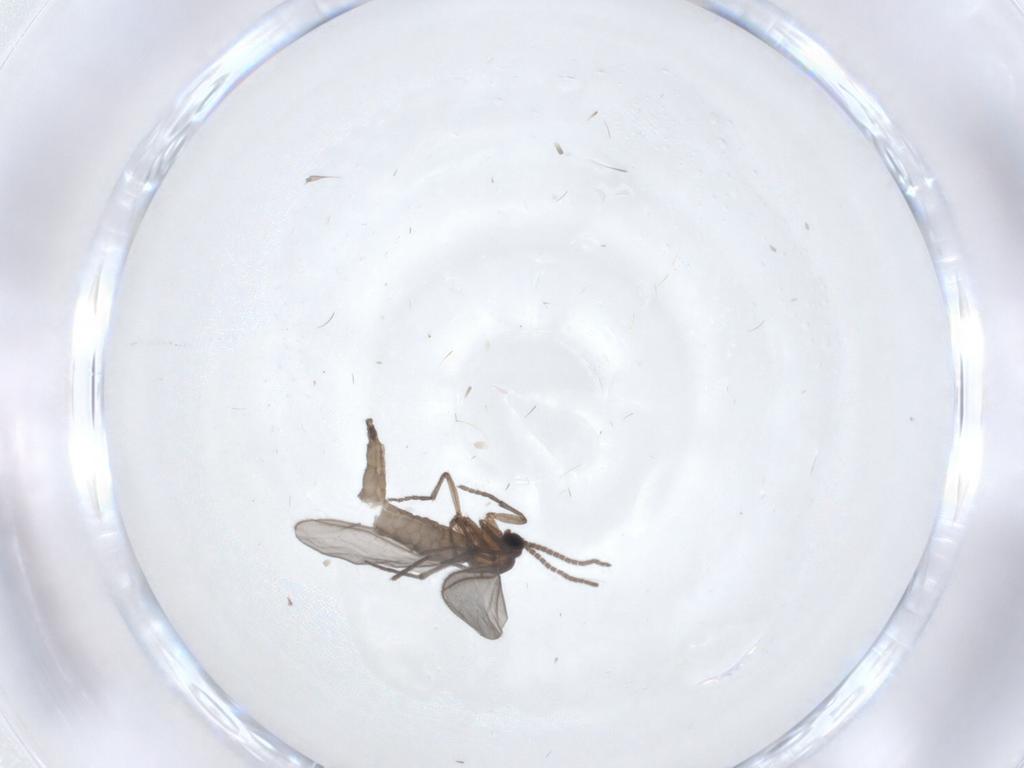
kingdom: Animalia
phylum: Arthropoda
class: Insecta
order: Diptera
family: Sciaridae
